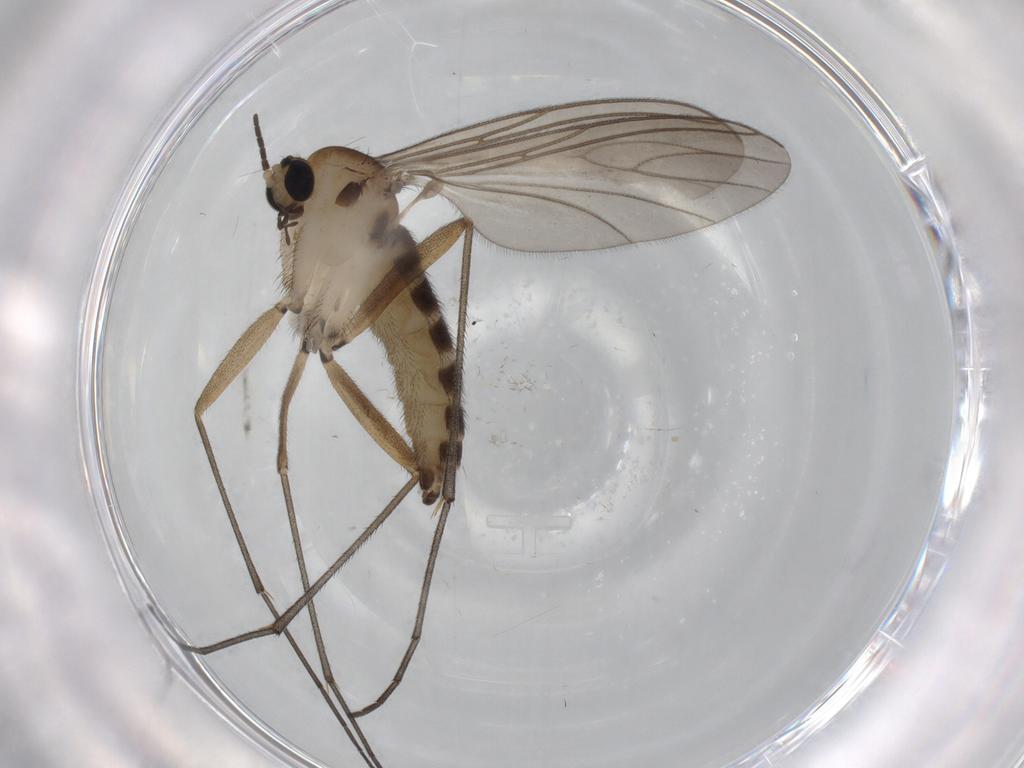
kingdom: Animalia
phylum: Arthropoda
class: Insecta
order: Diptera
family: Sciaridae
